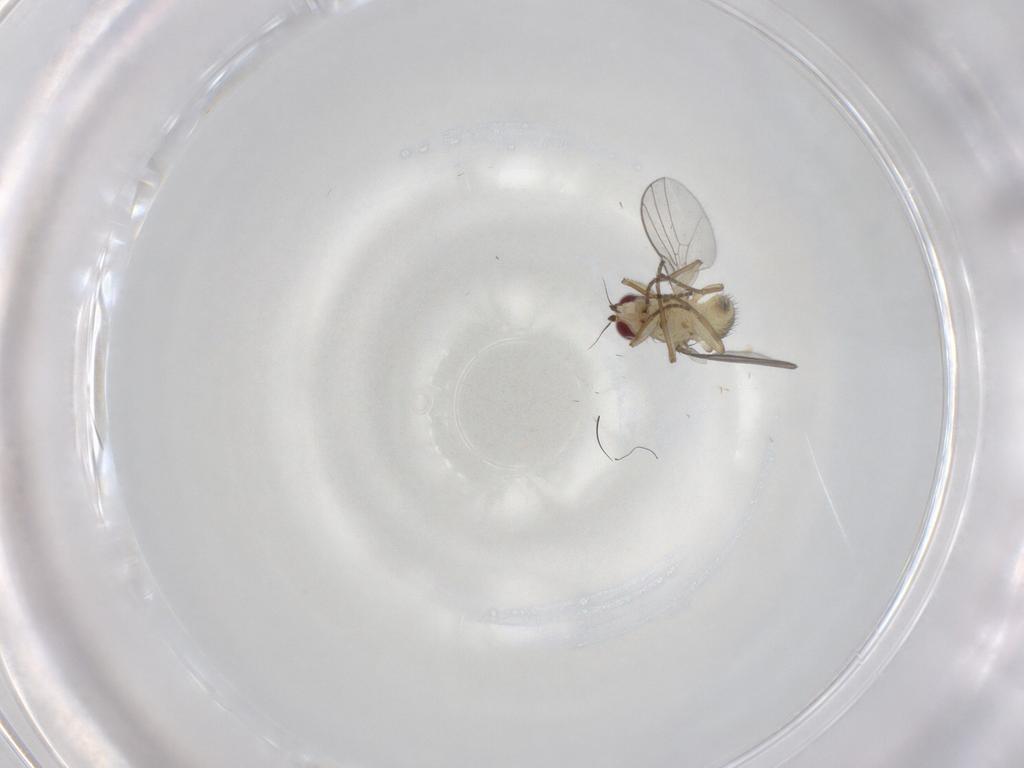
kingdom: Animalia
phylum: Arthropoda
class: Insecta
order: Diptera
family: Agromyzidae
